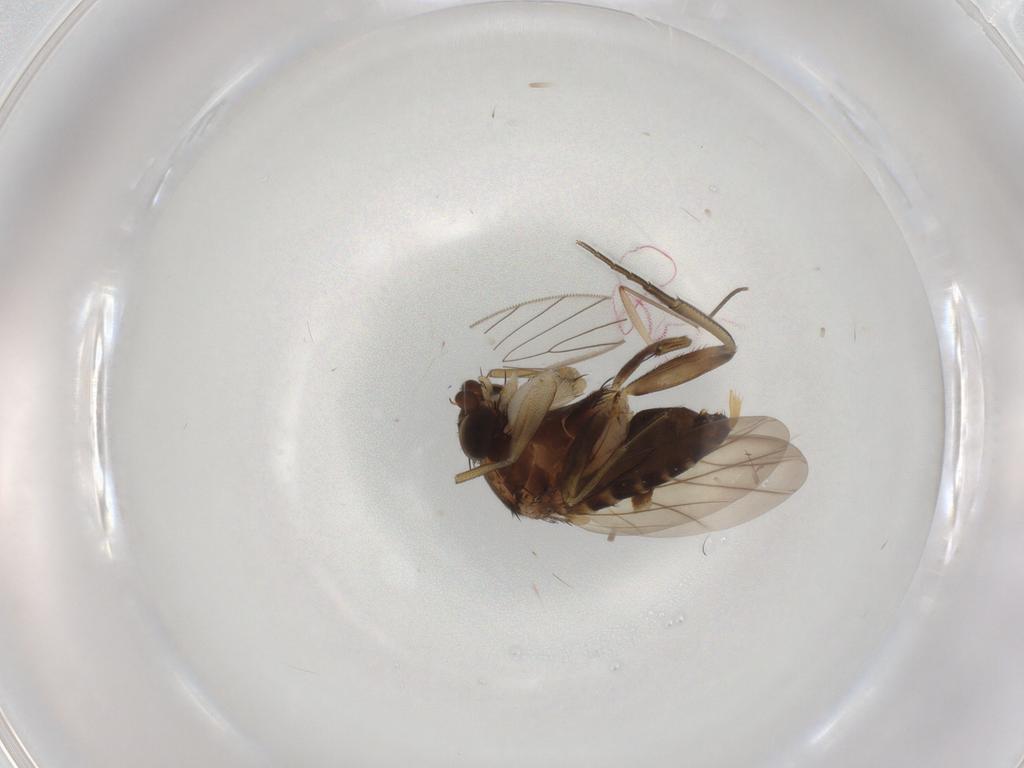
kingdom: Animalia
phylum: Arthropoda
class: Insecta
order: Diptera
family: Phoridae
